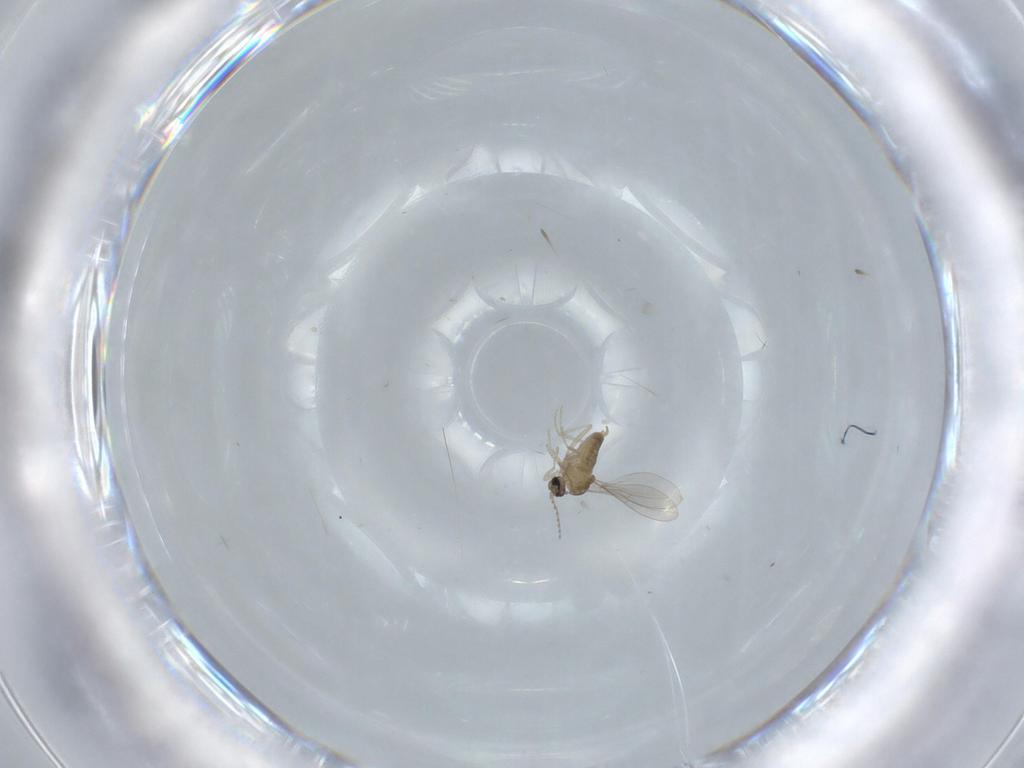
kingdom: Animalia
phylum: Arthropoda
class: Insecta
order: Diptera
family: Cecidomyiidae
